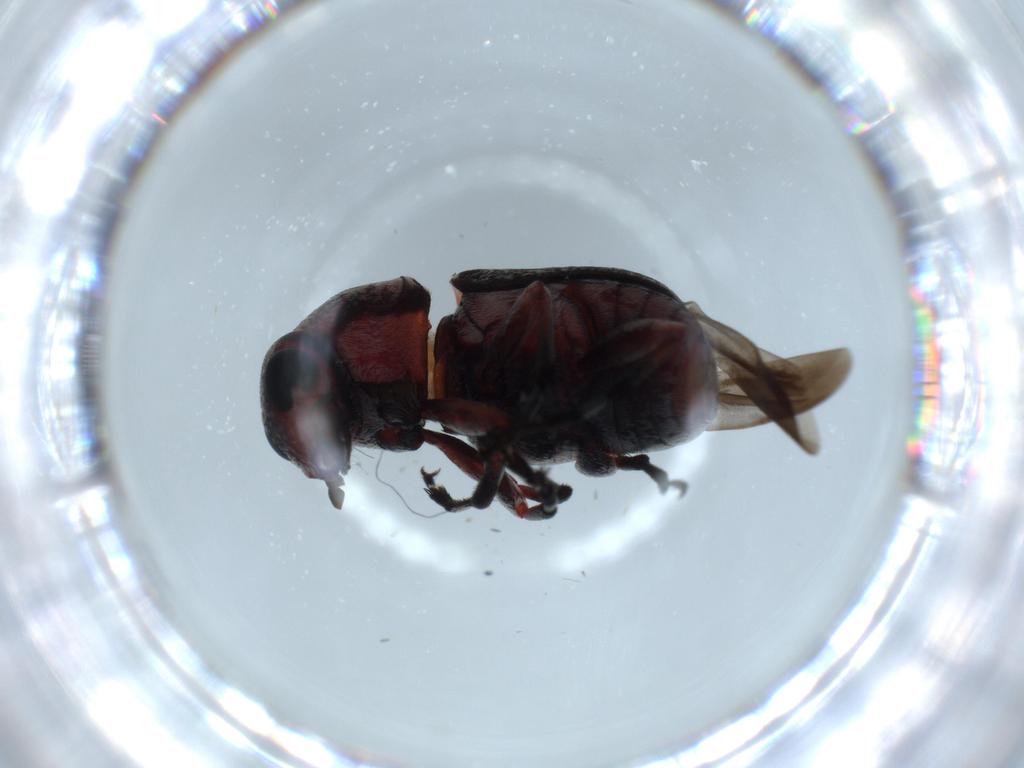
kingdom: Animalia
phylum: Arthropoda
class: Insecta
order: Coleoptera
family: Scraptiidae
